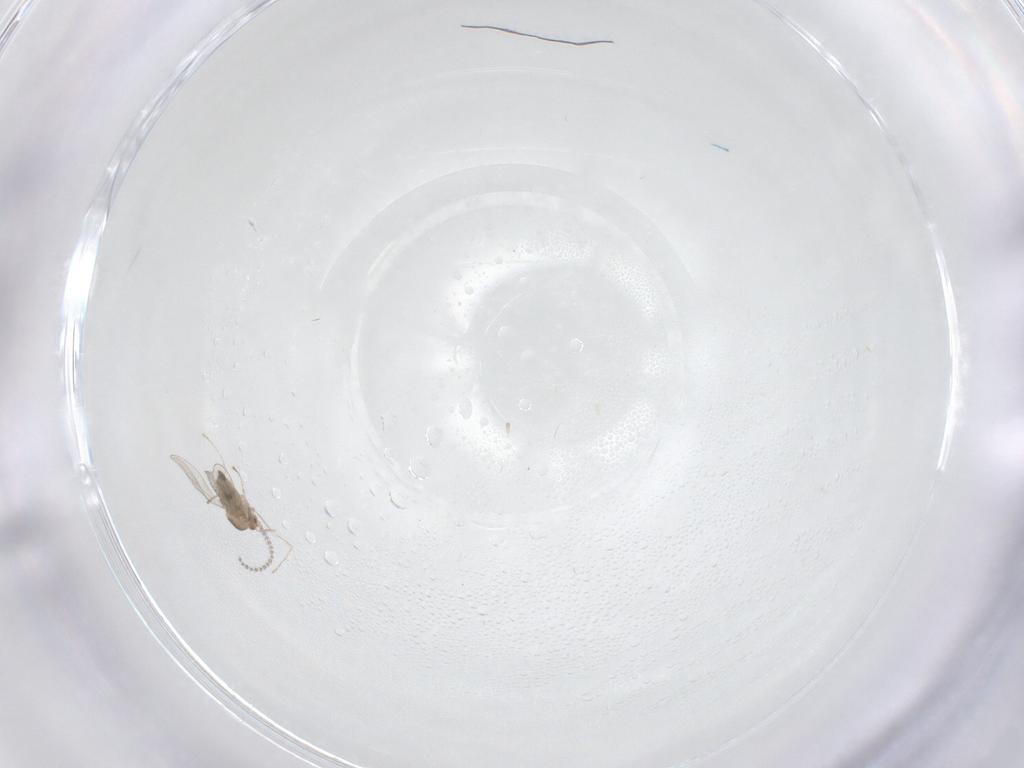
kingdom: Animalia
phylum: Arthropoda
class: Insecta
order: Diptera
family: Cecidomyiidae
